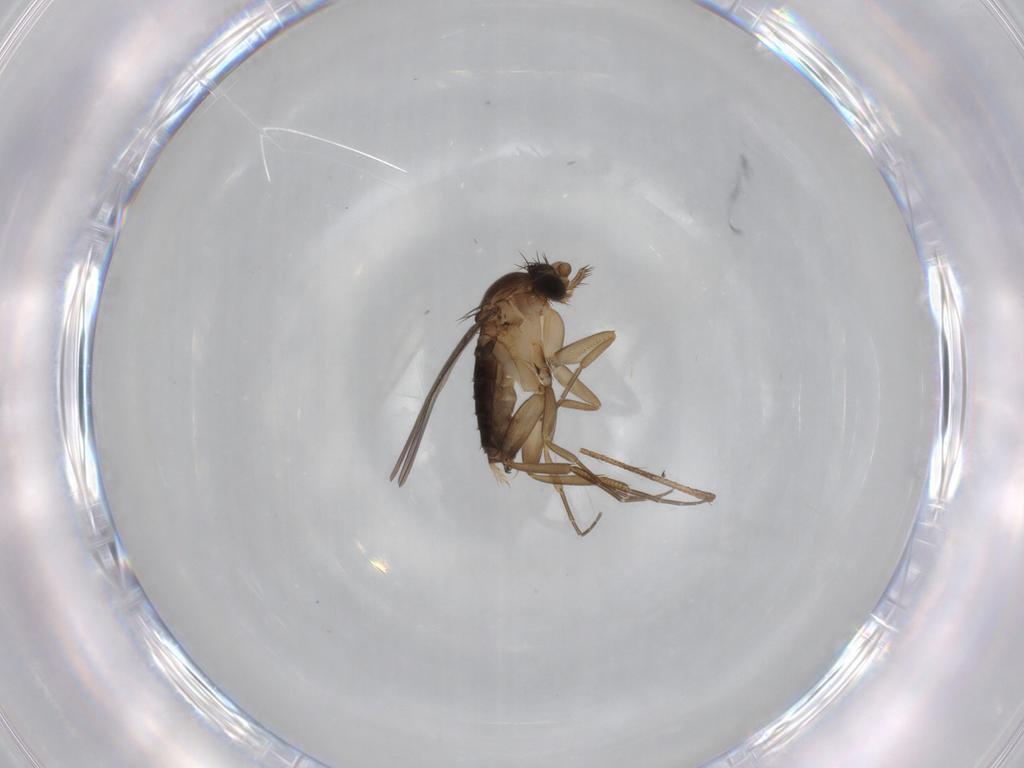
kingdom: Animalia
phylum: Arthropoda
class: Insecta
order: Diptera
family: Phoridae
